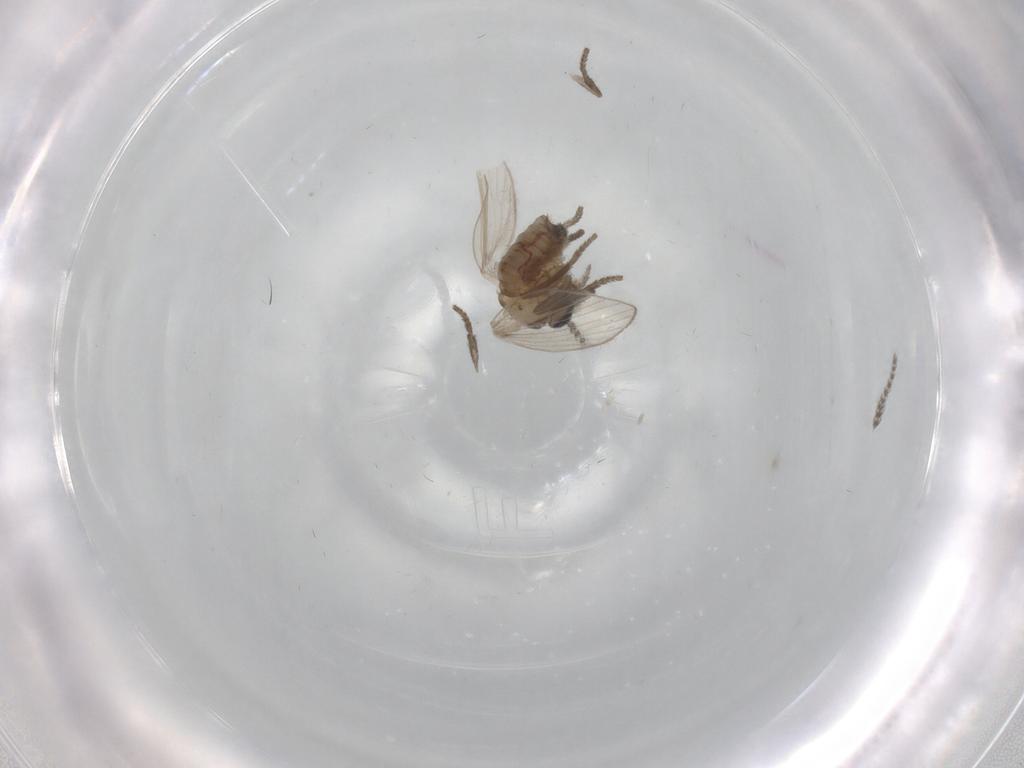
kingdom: Animalia
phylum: Arthropoda
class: Insecta
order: Diptera
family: Psychodidae
